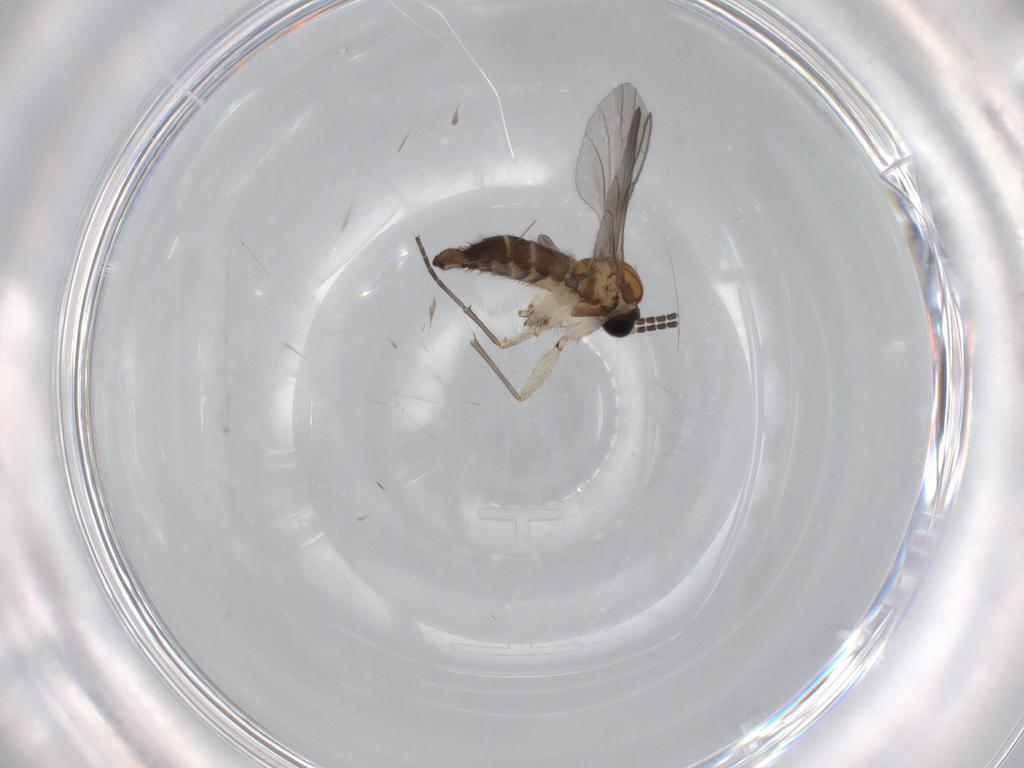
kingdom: Animalia
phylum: Arthropoda
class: Insecta
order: Diptera
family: Sciaridae
